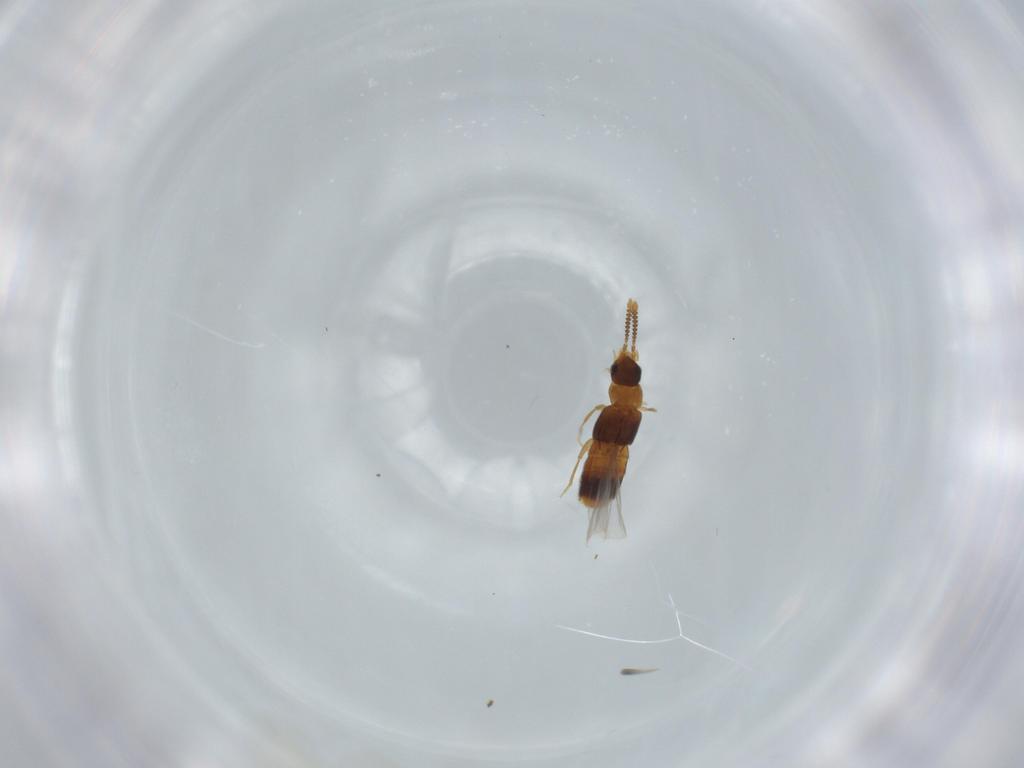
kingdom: Animalia
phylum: Arthropoda
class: Insecta
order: Coleoptera
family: Staphylinidae
